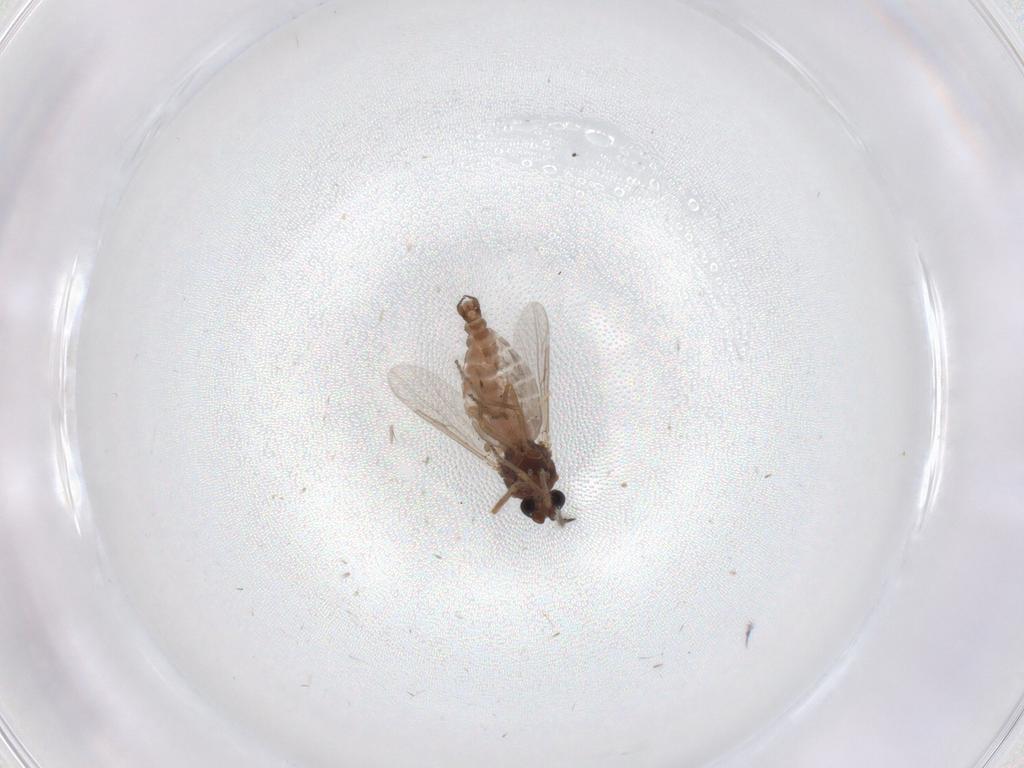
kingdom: Animalia
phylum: Arthropoda
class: Insecta
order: Diptera
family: Ceratopogonidae
